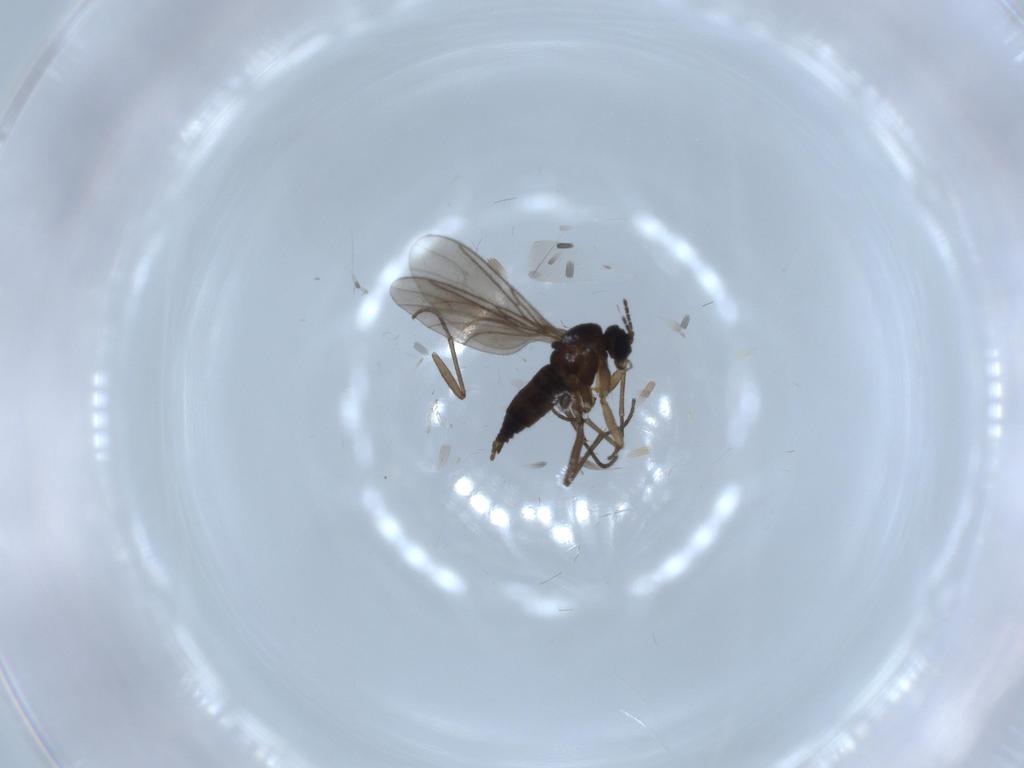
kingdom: Animalia
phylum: Arthropoda
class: Insecta
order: Diptera
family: Sciaridae
